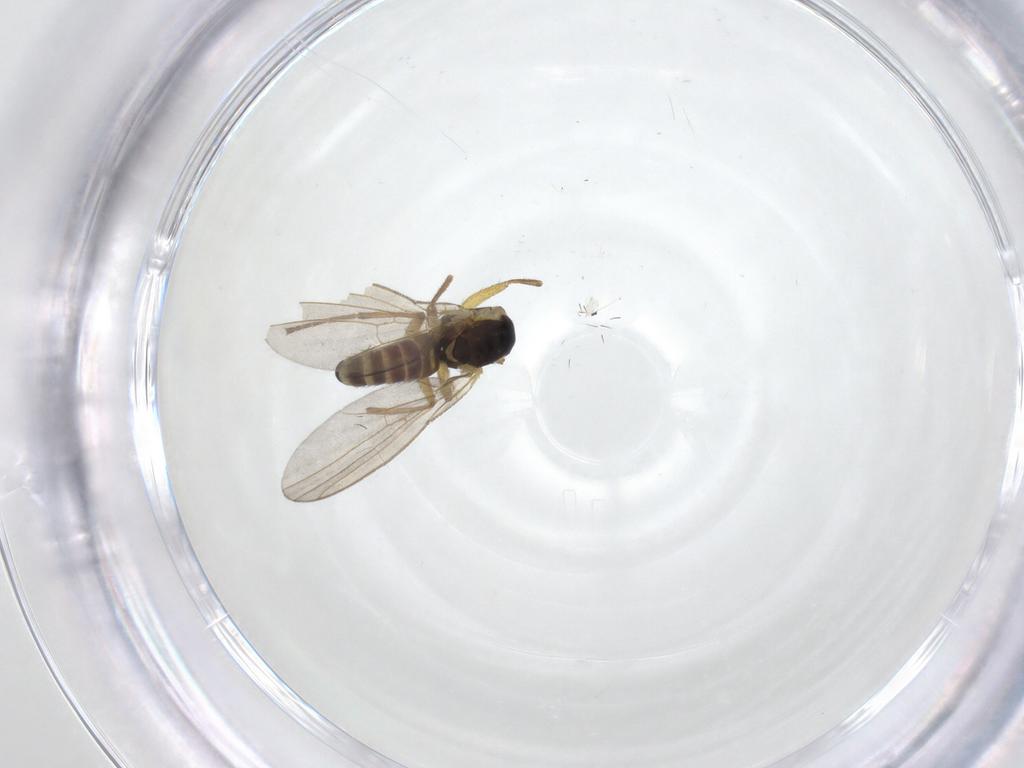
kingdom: Animalia
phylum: Arthropoda
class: Insecta
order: Diptera
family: Agromyzidae
